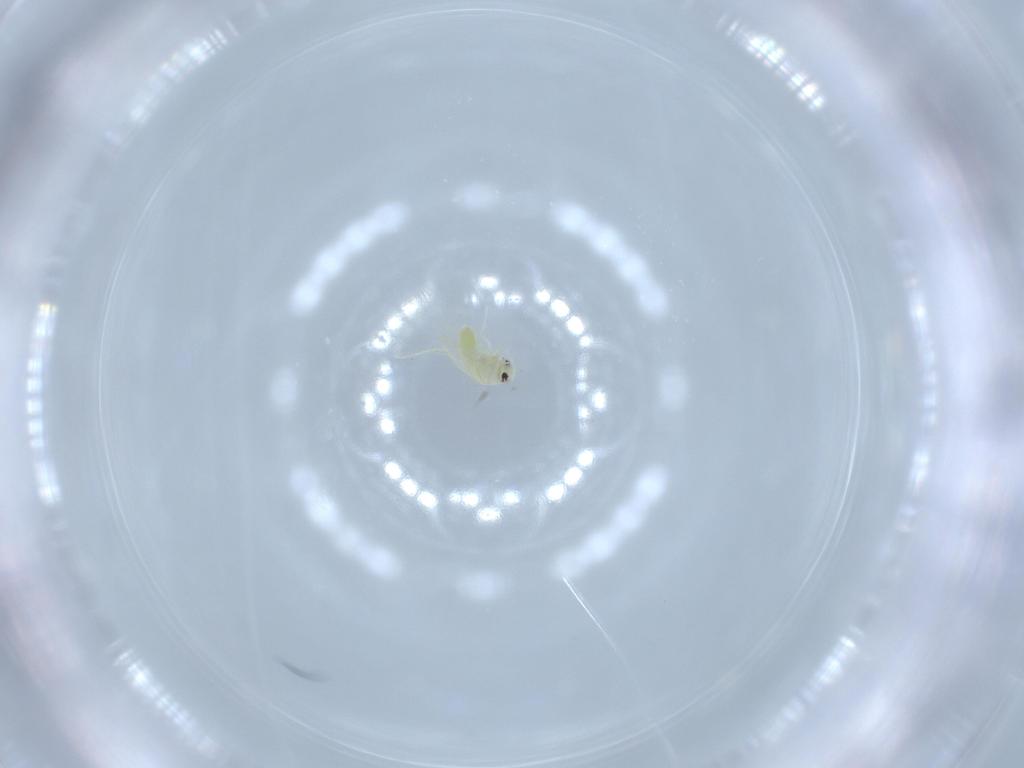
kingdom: Animalia
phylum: Arthropoda
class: Insecta
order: Hemiptera
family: Aleyrodidae
